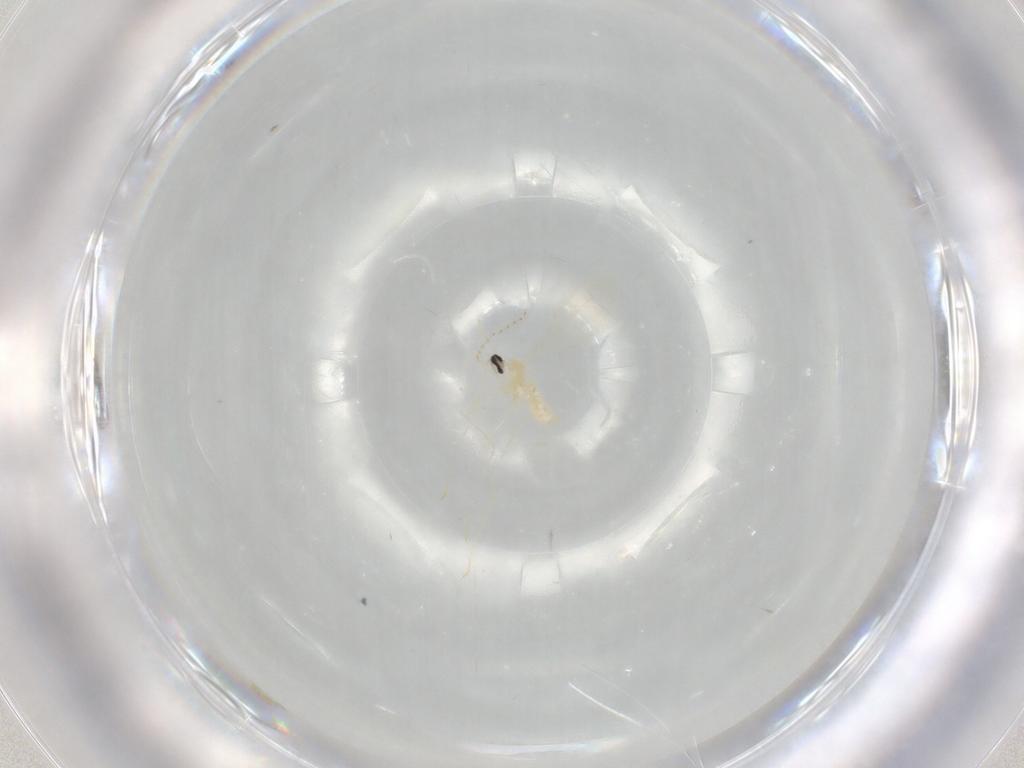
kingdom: Animalia
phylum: Arthropoda
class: Insecta
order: Diptera
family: Cecidomyiidae
